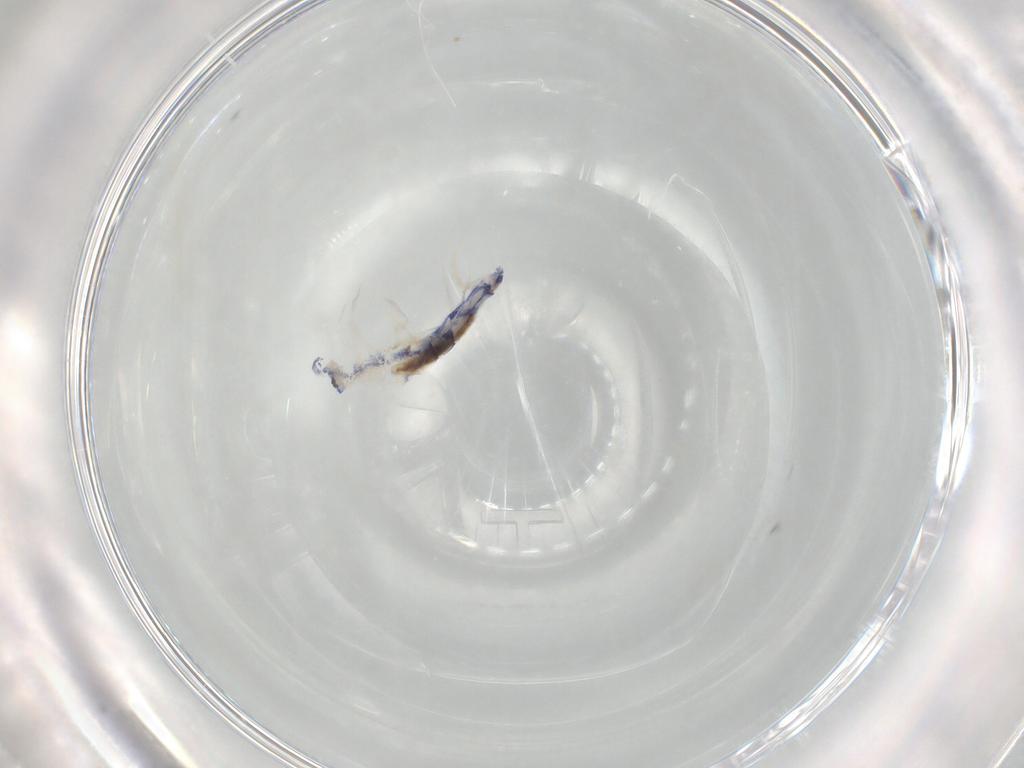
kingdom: Animalia
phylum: Arthropoda
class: Collembola
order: Entomobryomorpha
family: Entomobryidae
